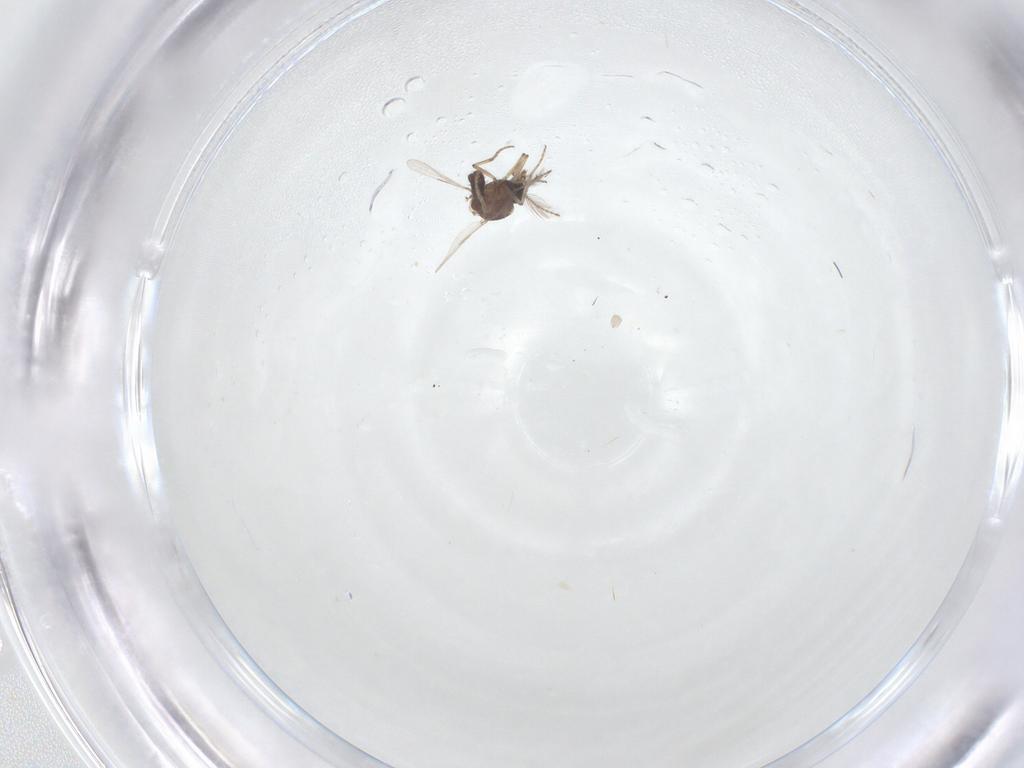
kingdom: Animalia
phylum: Arthropoda
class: Insecta
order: Diptera
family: Ceratopogonidae
